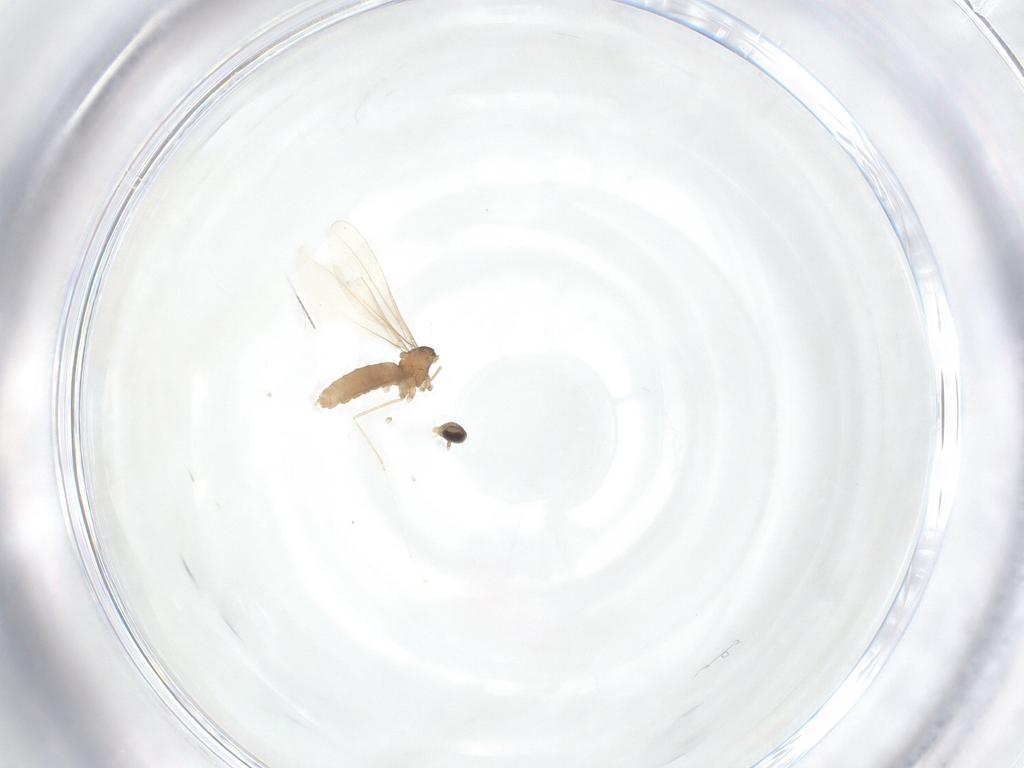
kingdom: Animalia
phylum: Arthropoda
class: Insecta
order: Diptera
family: Cecidomyiidae
